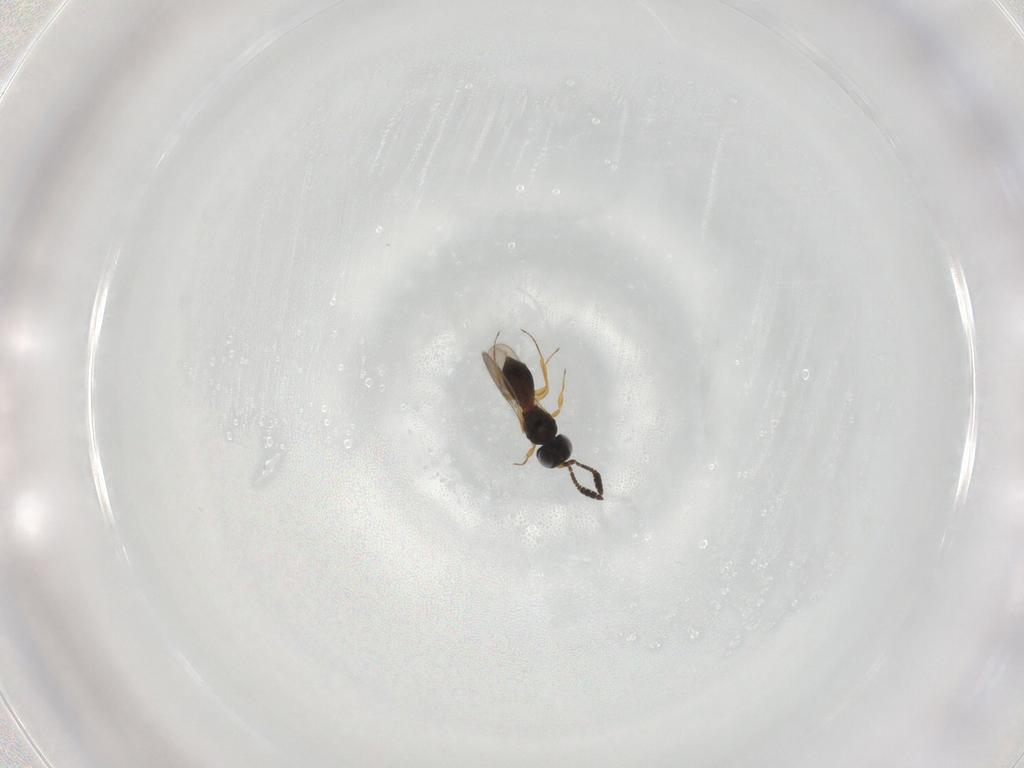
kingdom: Animalia
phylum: Arthropoda
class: Insecta
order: Hymenoptera
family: Scelionidae
